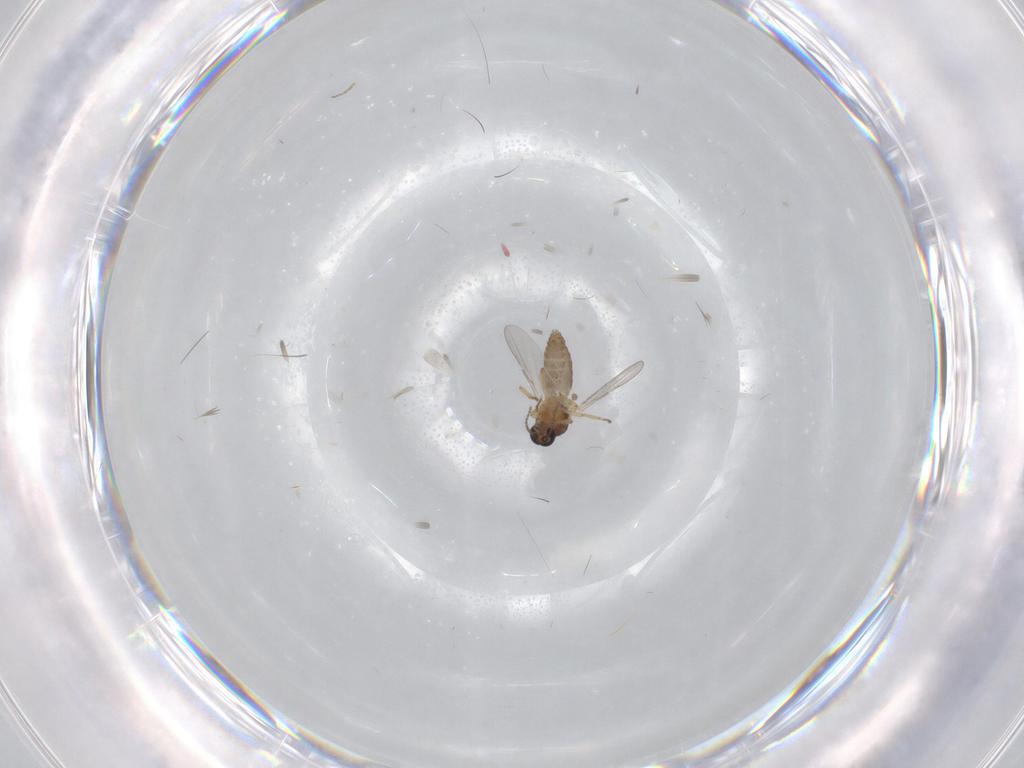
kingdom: Animalia
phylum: Arthropoda
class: Insecta
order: Diptera
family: Ceratopogonidae
